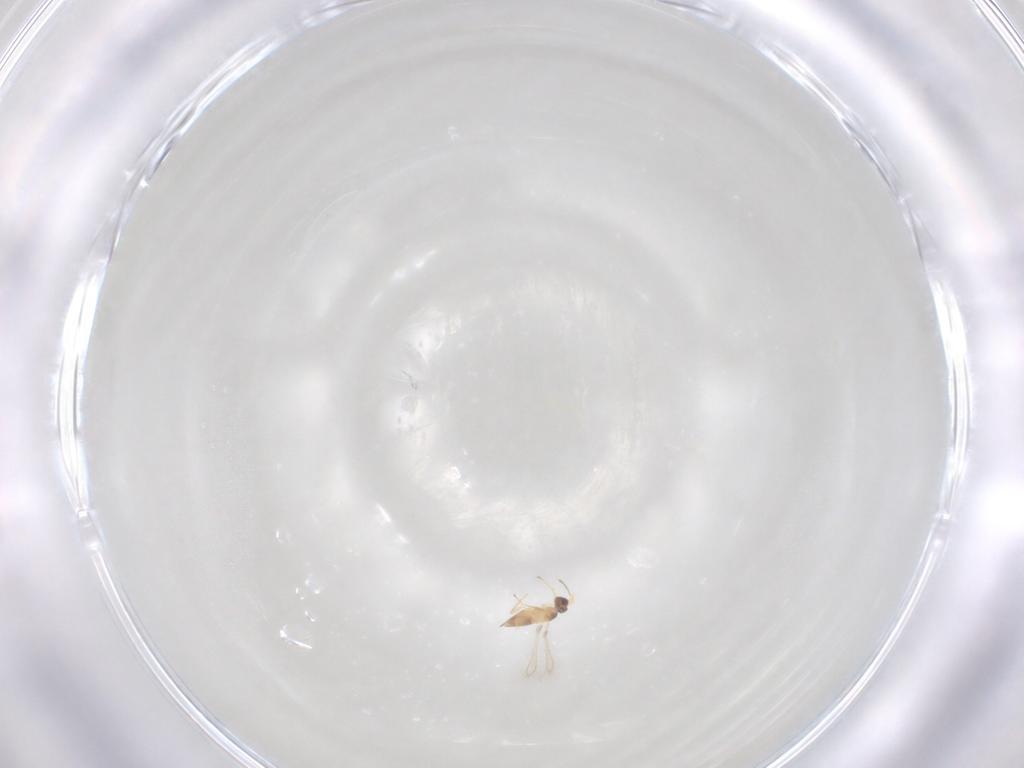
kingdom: Animalia
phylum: Arthropoda
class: Insecta
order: Hymenoptera
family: Mymaridae
